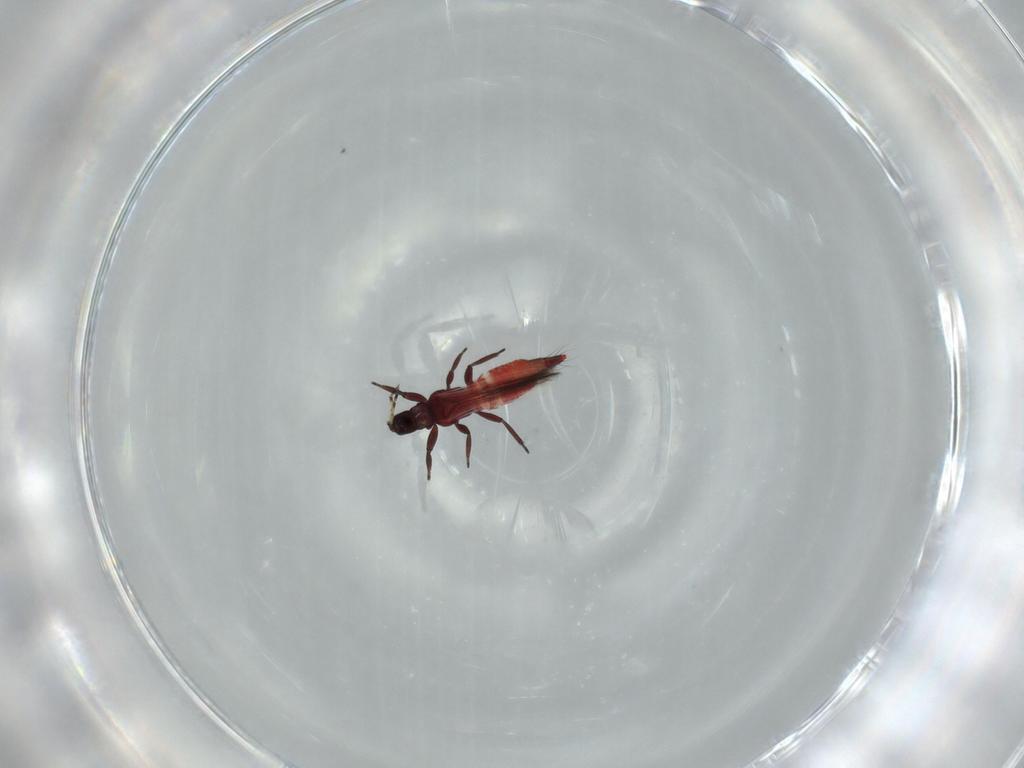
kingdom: Animalia
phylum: Arthropoda
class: Insecta
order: Thysanoptera
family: Aeolothripidae
